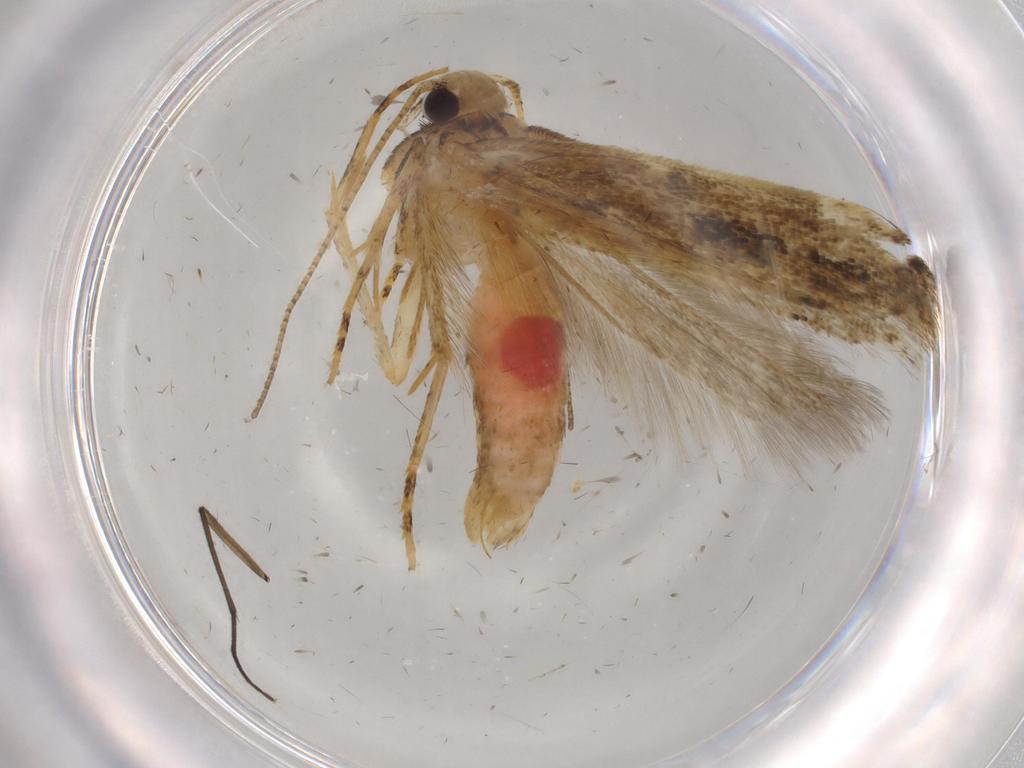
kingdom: Animalia
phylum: Arthropoda
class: Insecta
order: Lepidoptera
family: Gelechiidae
